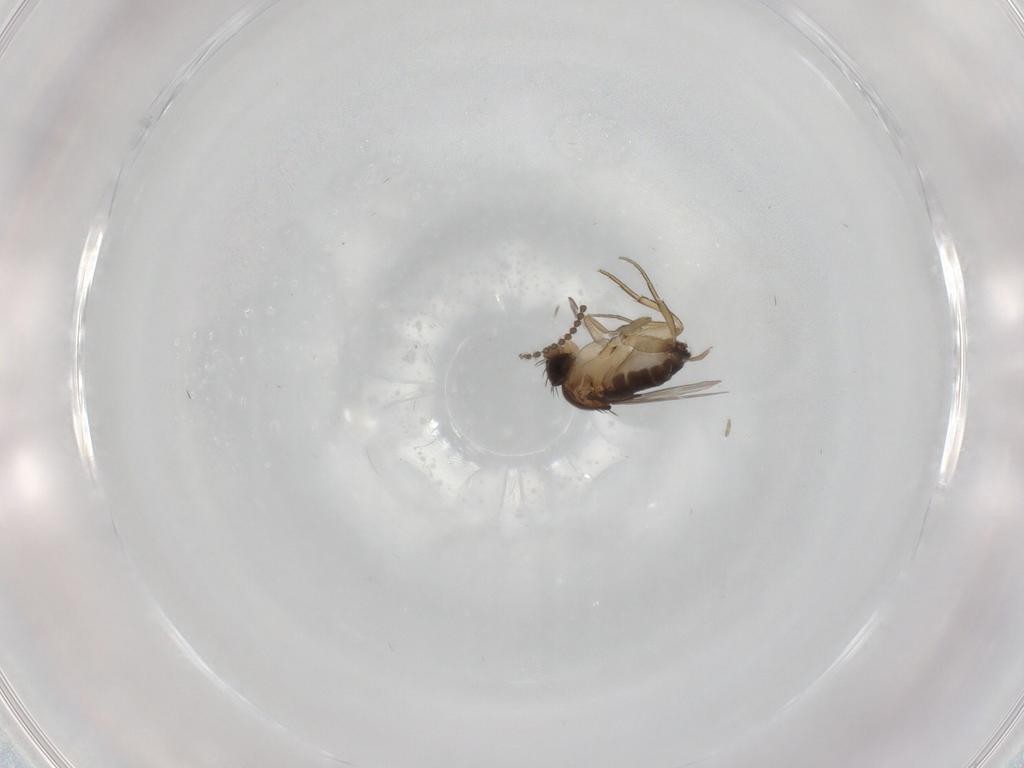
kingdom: Animalia
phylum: Arthropoda
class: Insecta
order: Diptera
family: Cecidomyiidae
